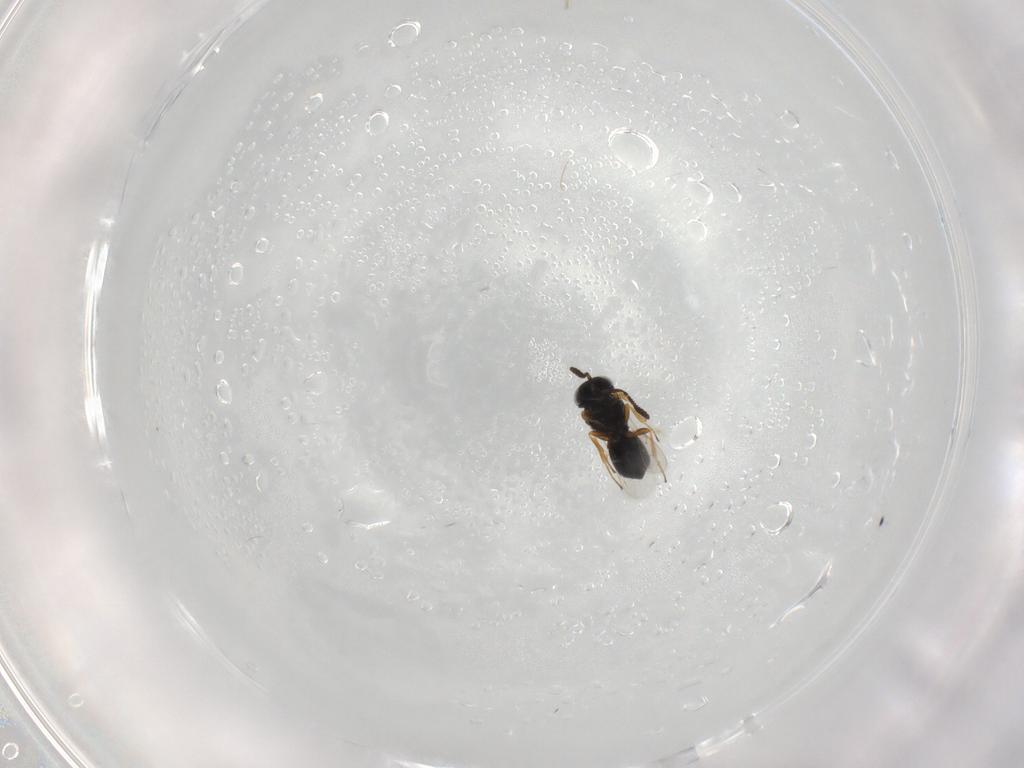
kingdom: Animalia
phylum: Arthropoda
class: Insecta
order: Hymenoptera
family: Scelionidae
